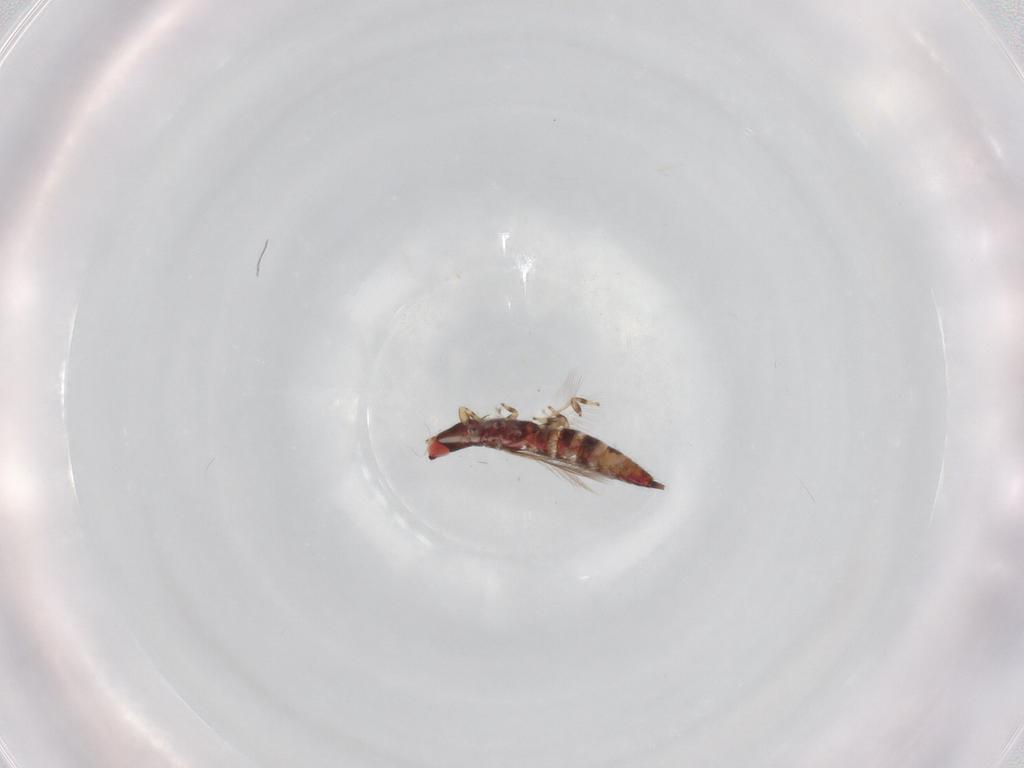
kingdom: Animalia
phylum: Arthropoda
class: Insecta
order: Thysanoptera
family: Phlaeothripidae
